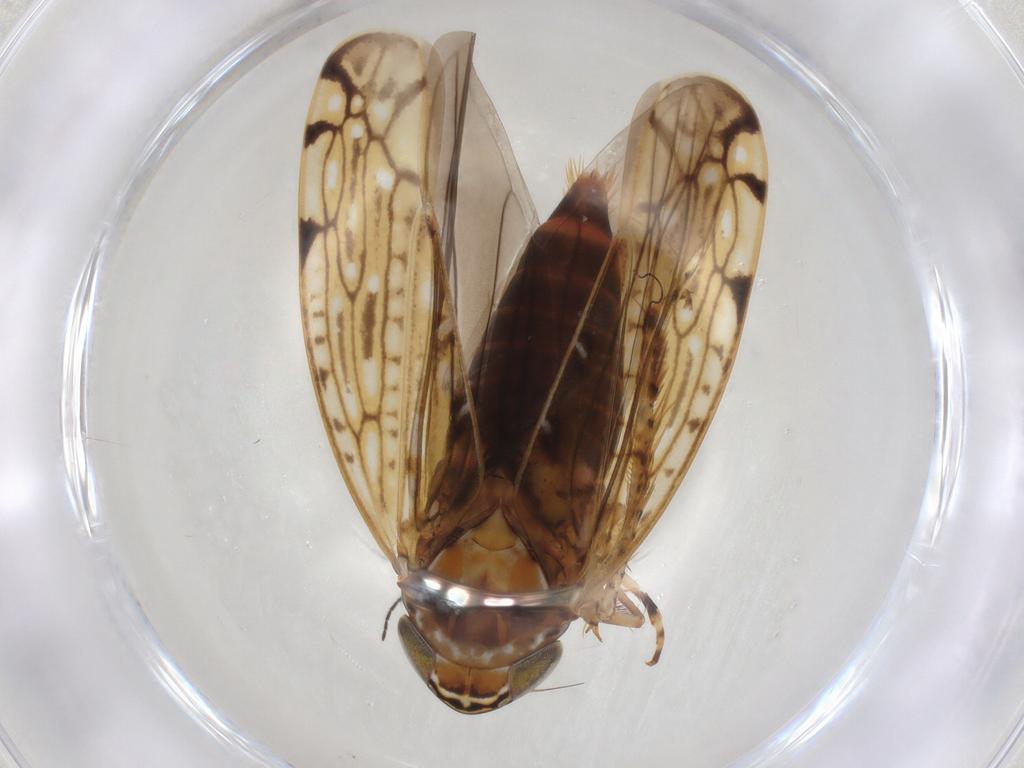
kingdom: Animalia
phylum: Arthropoda
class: Insecta
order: Hemiptera
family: Cicadellidae
